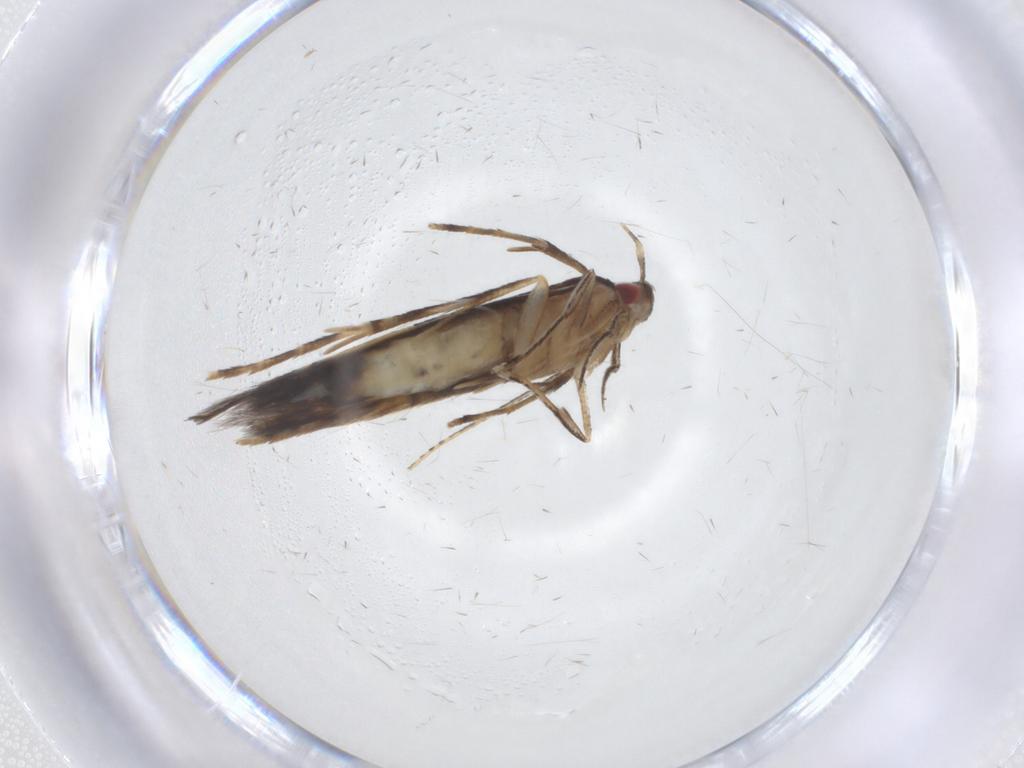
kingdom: Animalia
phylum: Arthropoda
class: Insecta
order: Lepidoptera
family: Cosmopterigidae
